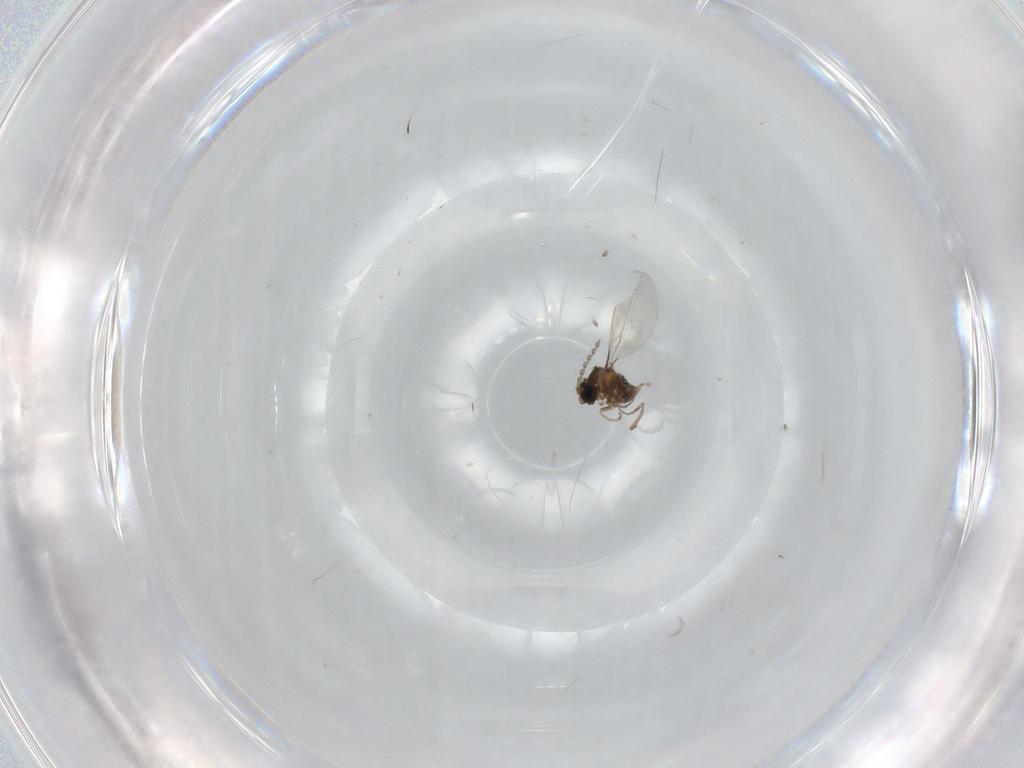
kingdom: Animalia
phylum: Arthropoda
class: Insecta
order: Diptera
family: Cecidomyiidae
